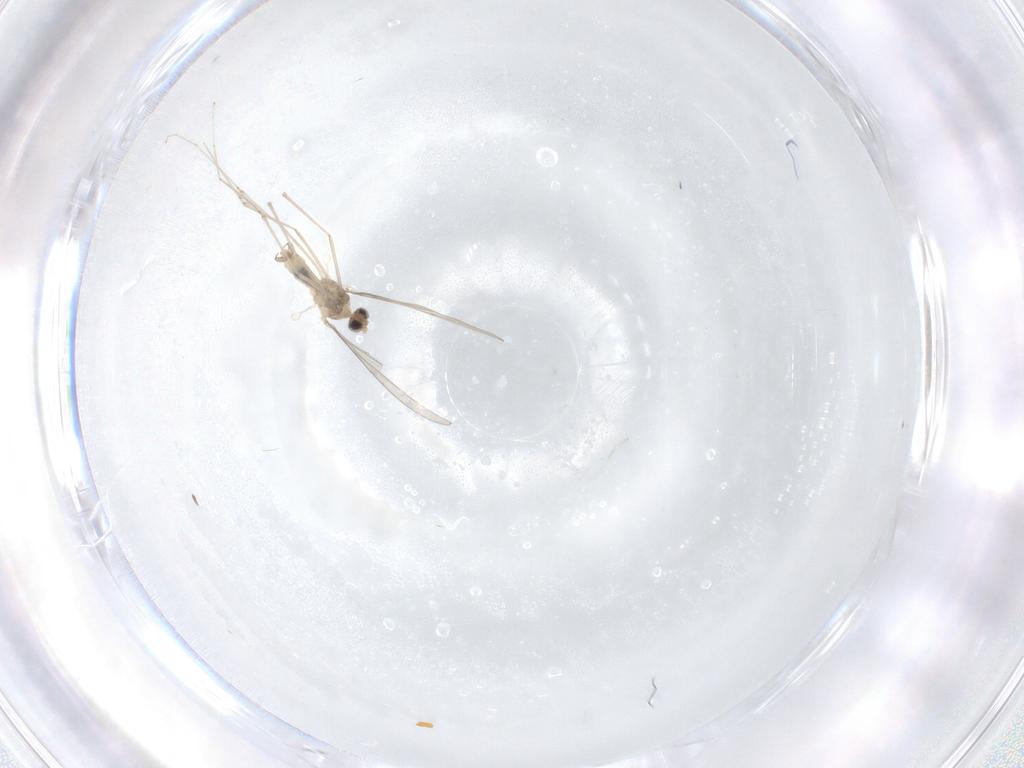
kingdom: Animalia
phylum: Arthropoda
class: Insecta
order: Diptera
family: Cecidomyiidae
